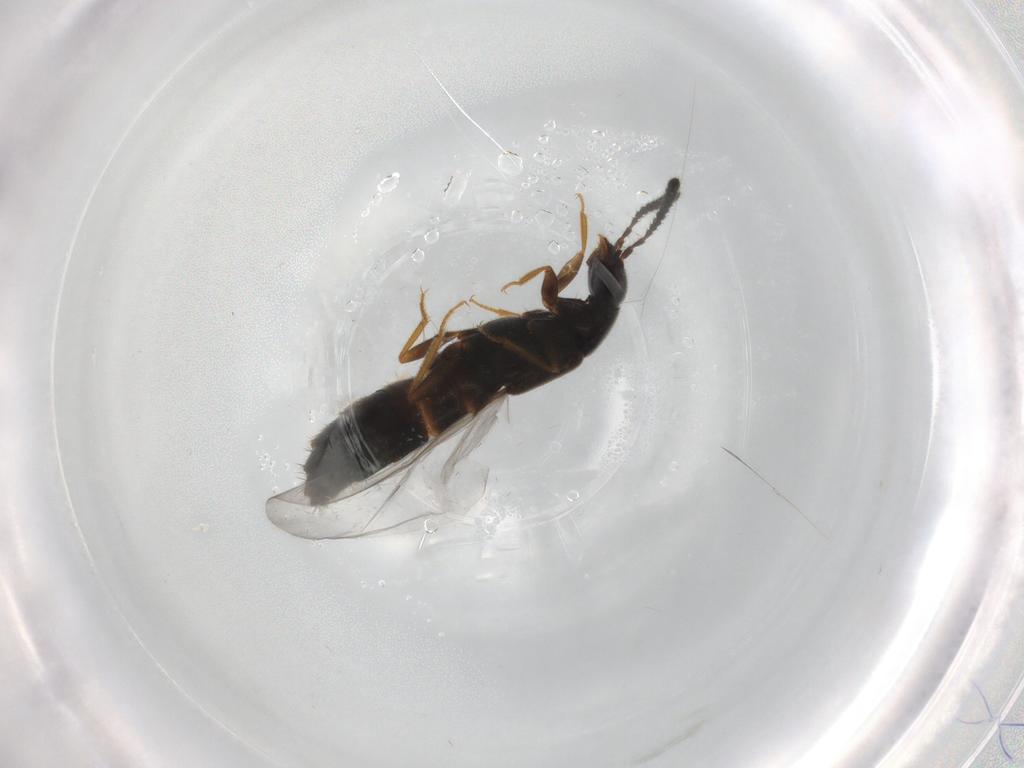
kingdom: Animalia
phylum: Arthropoda
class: Insecta
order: Coleoptera
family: Staphylinidae
